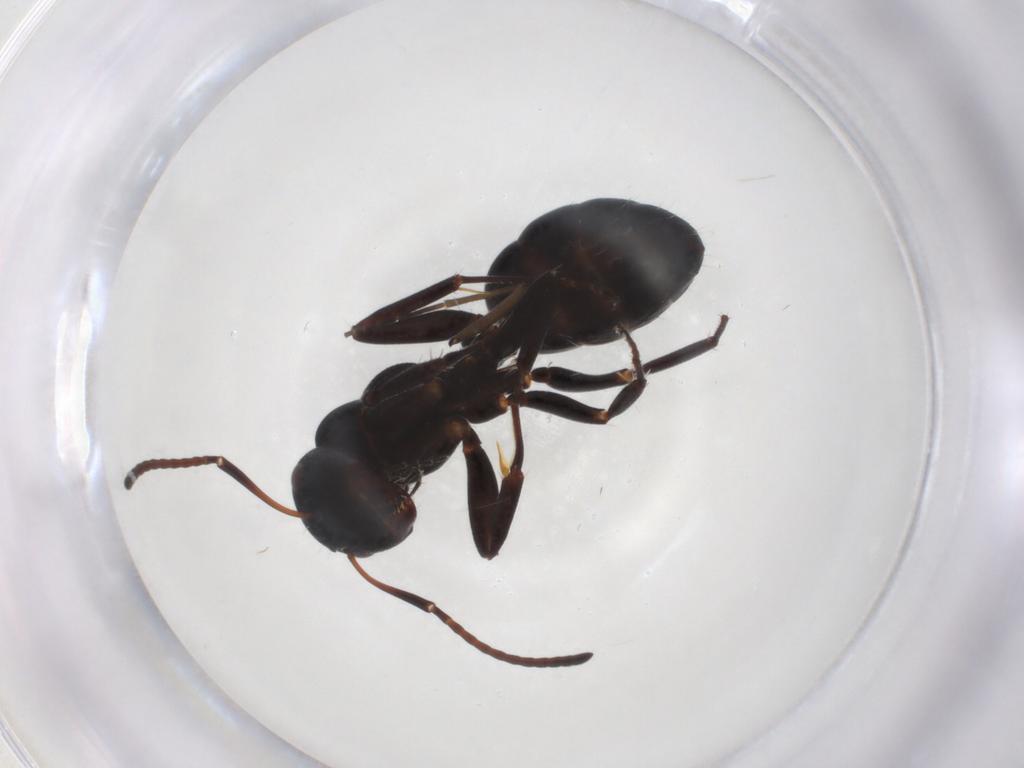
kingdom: Animalia
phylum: Arthropoda
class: Insecta
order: Hymenoptera
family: Formicidae
